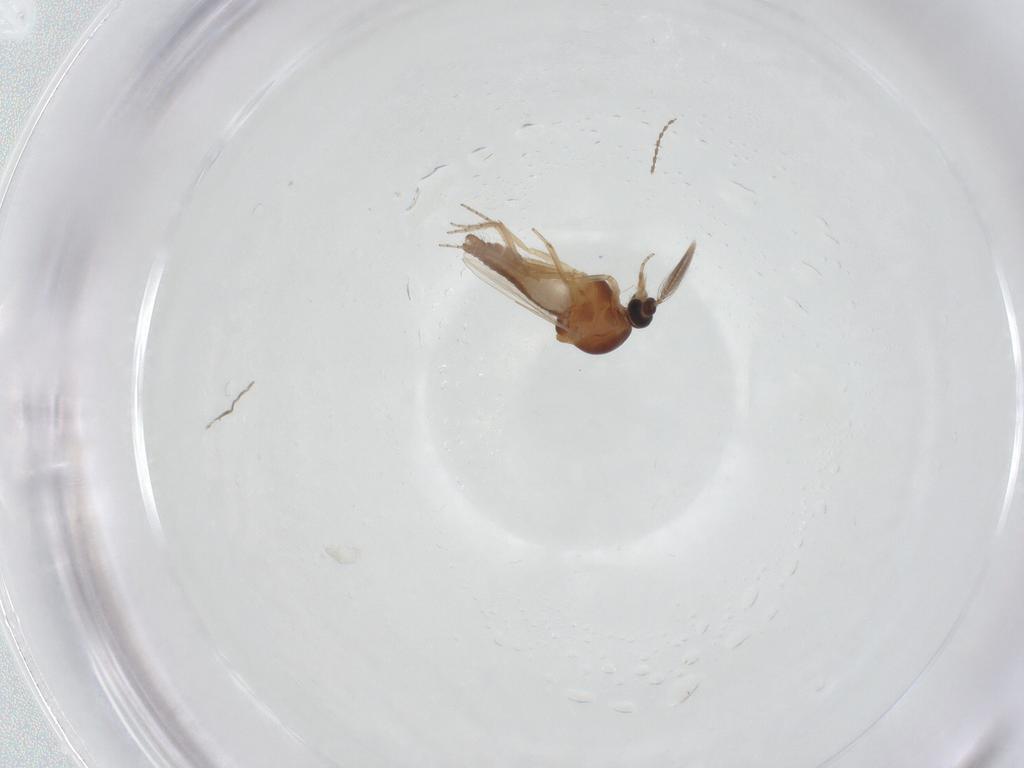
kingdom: Animalia
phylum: Arthropoda
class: Insecta
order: Diptera
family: Ceratopogonidae
